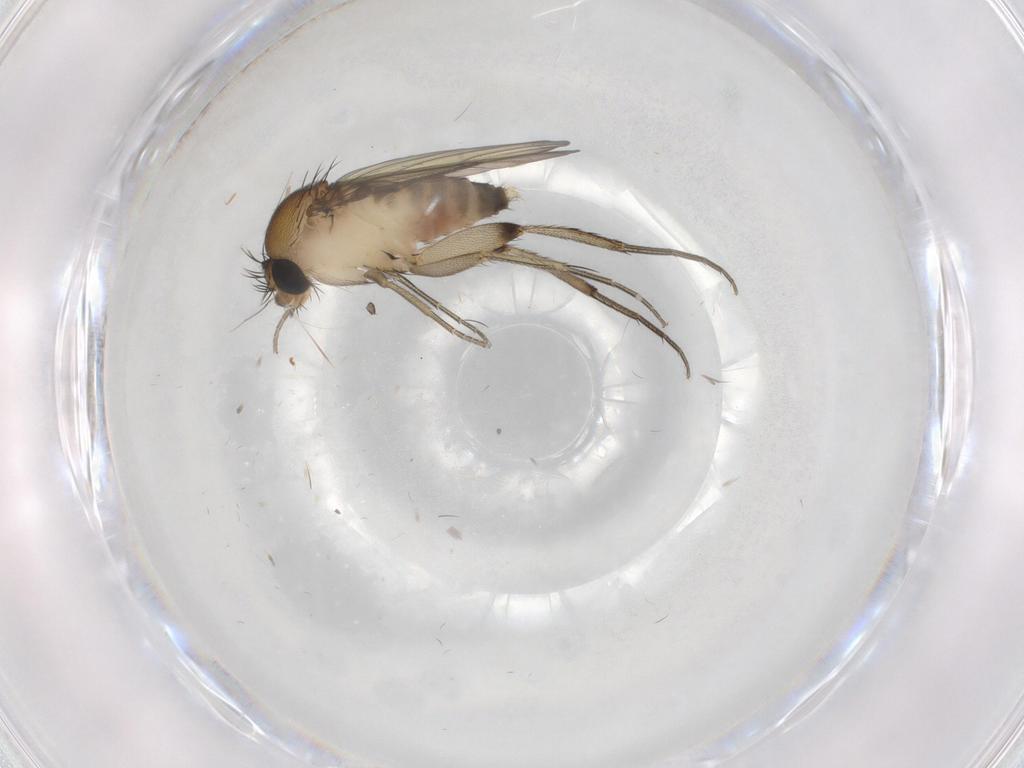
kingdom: Animalia
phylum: Arthropoda
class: Insecta
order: Diptera
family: Phoridae
